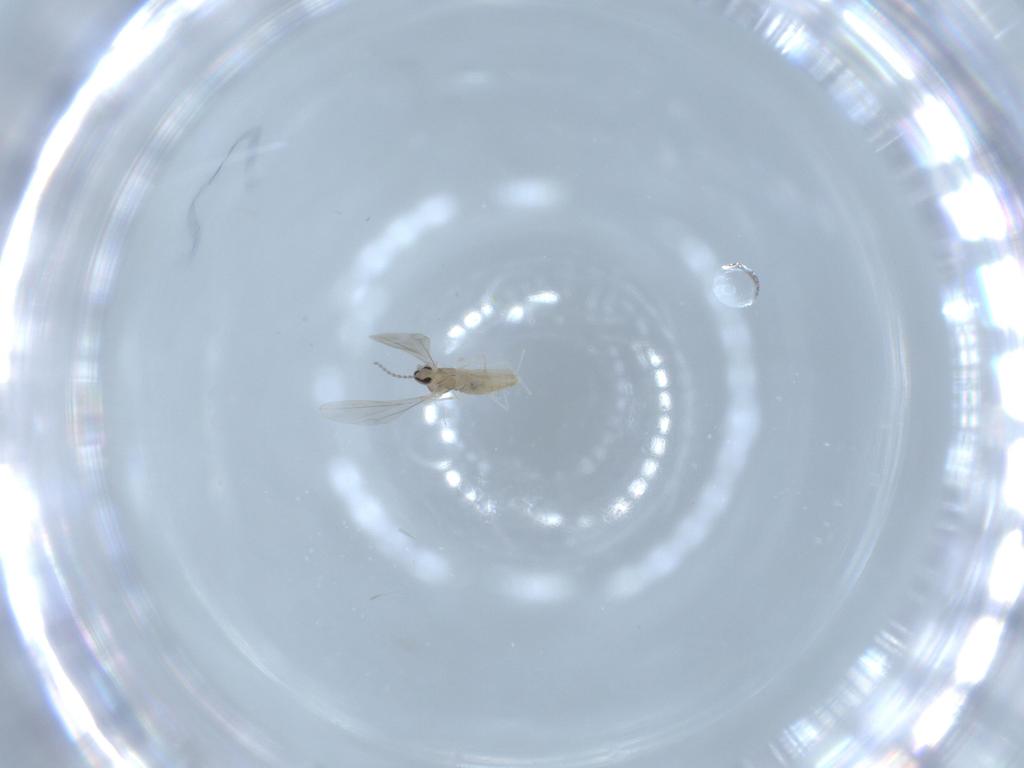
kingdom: Animalia
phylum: Arthropoda
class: Insecta
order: Diptera
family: Cecidomyiidae
